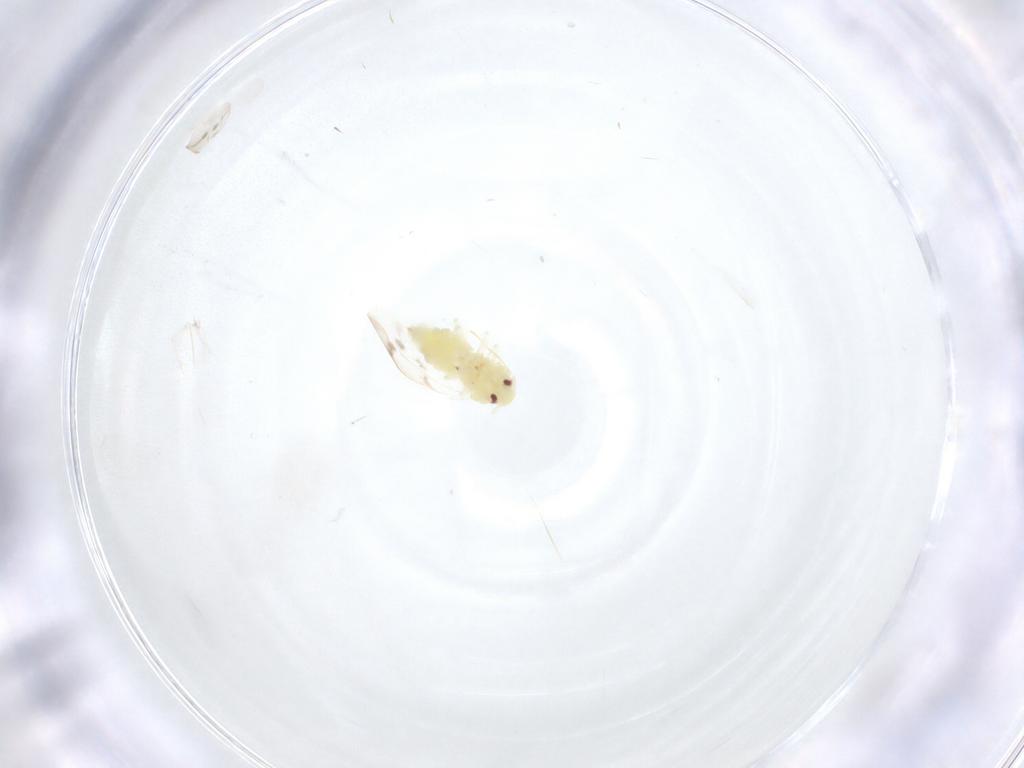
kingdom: Animalia
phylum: Arthropoda
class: Insecta
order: Hemiptera
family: Aleyrodidae
